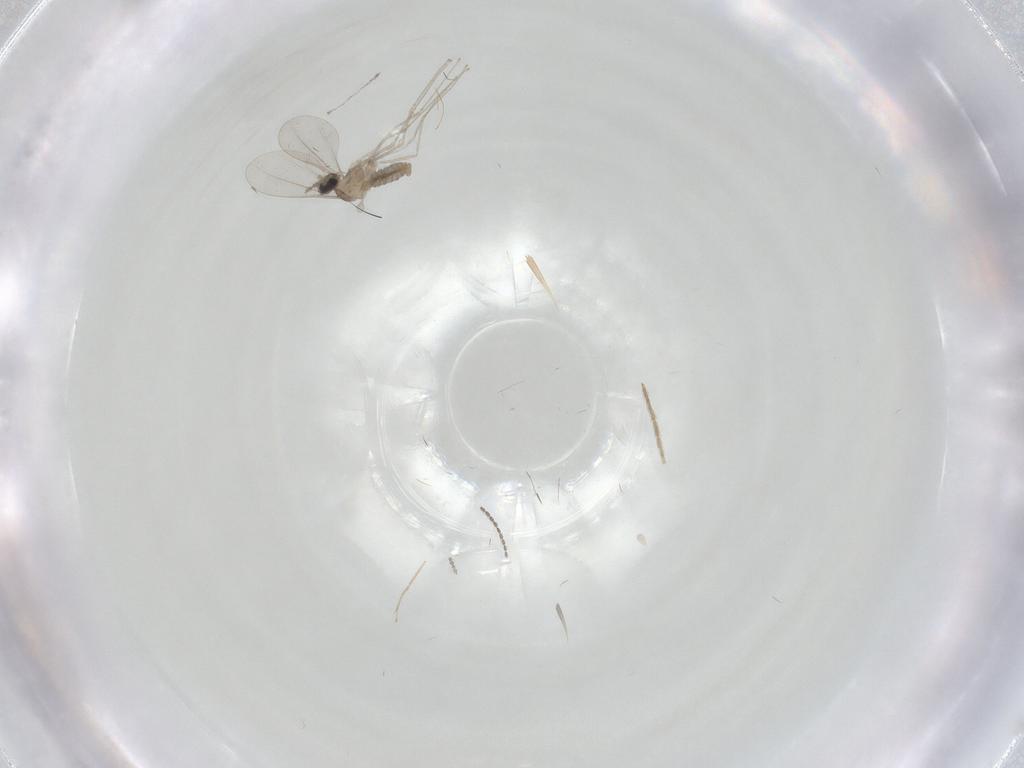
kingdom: Animalia
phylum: Arthropoda
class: Insecta
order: Diptera
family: Cecidomyiidae
